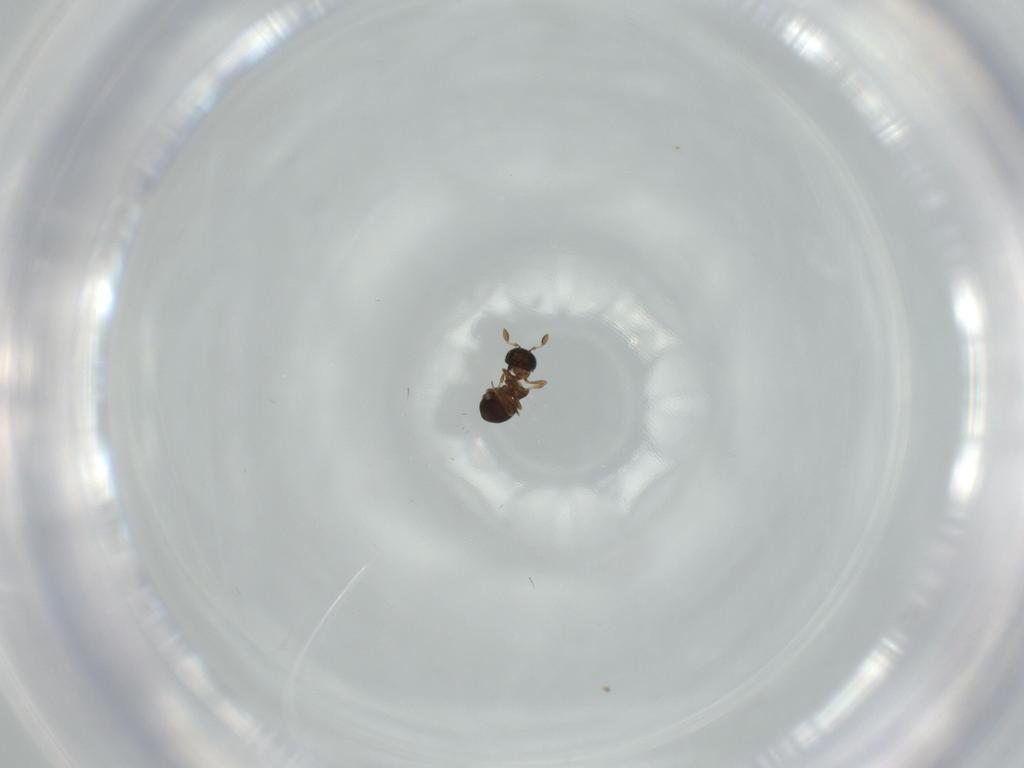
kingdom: Animalia
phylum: Arthropoda
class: Insecta
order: Hymenoptera
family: Scelionidae
